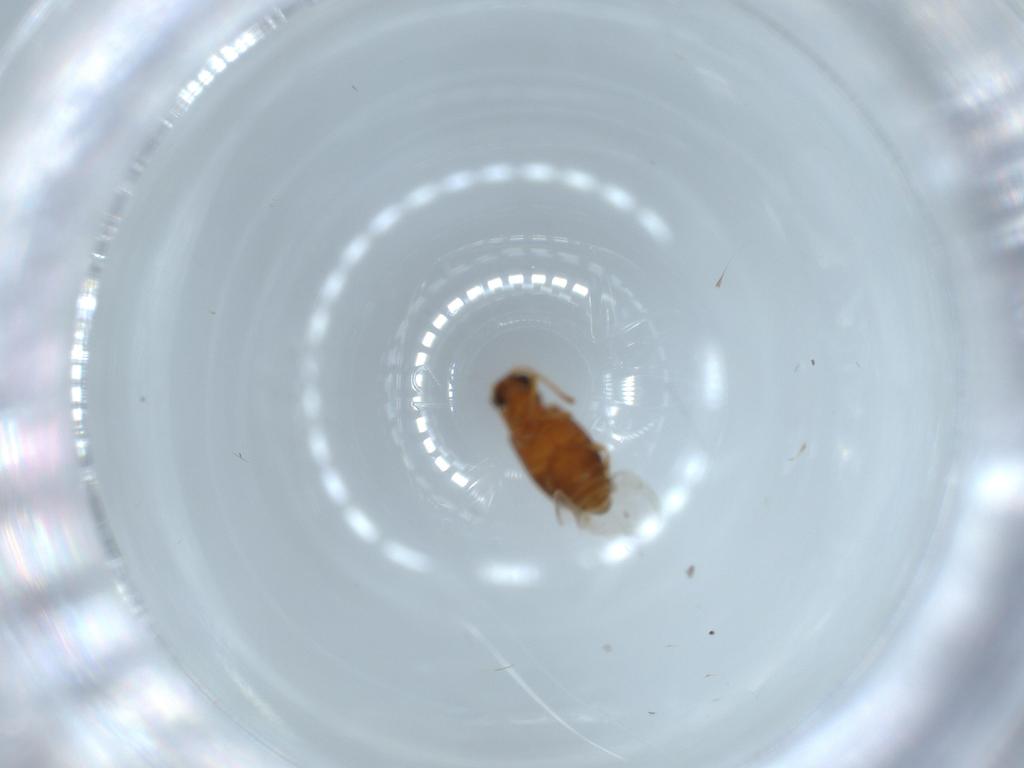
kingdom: Animalia
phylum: Arthropoda
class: Insecta
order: Coleoptera
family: Aderidae
